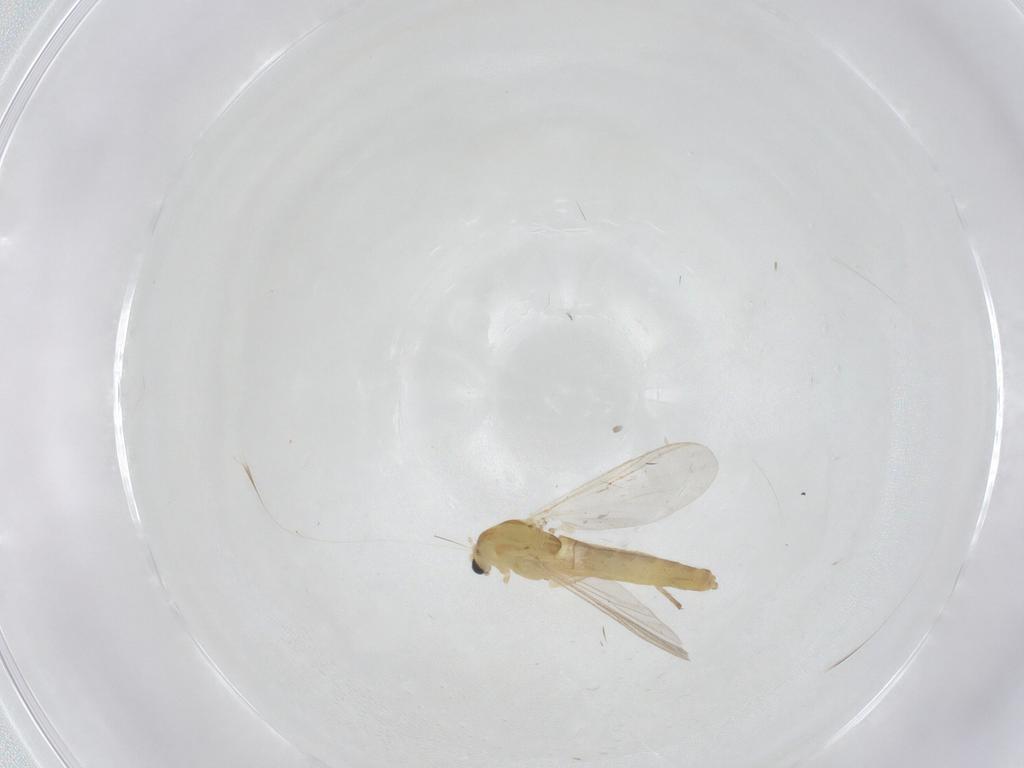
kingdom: Animalia
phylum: Arthropoda
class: Insecta
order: Diptera
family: Chironomidae
